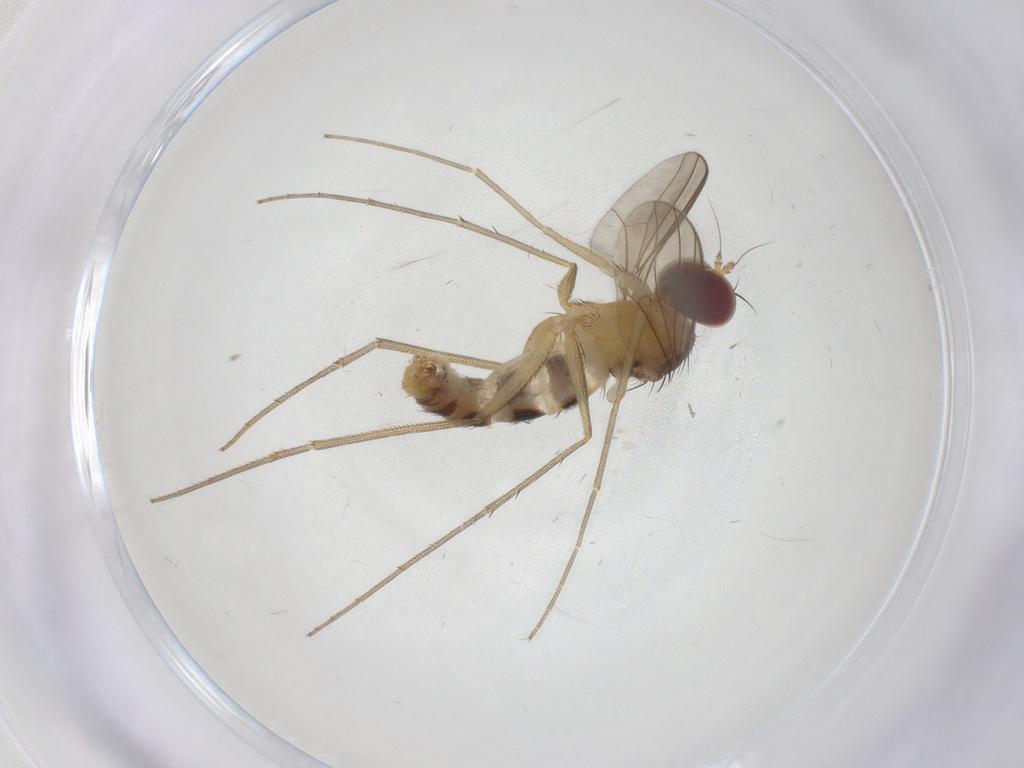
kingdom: Animalia
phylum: Arthropoda
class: Insecta
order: Diptera
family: Dolichopodidae
